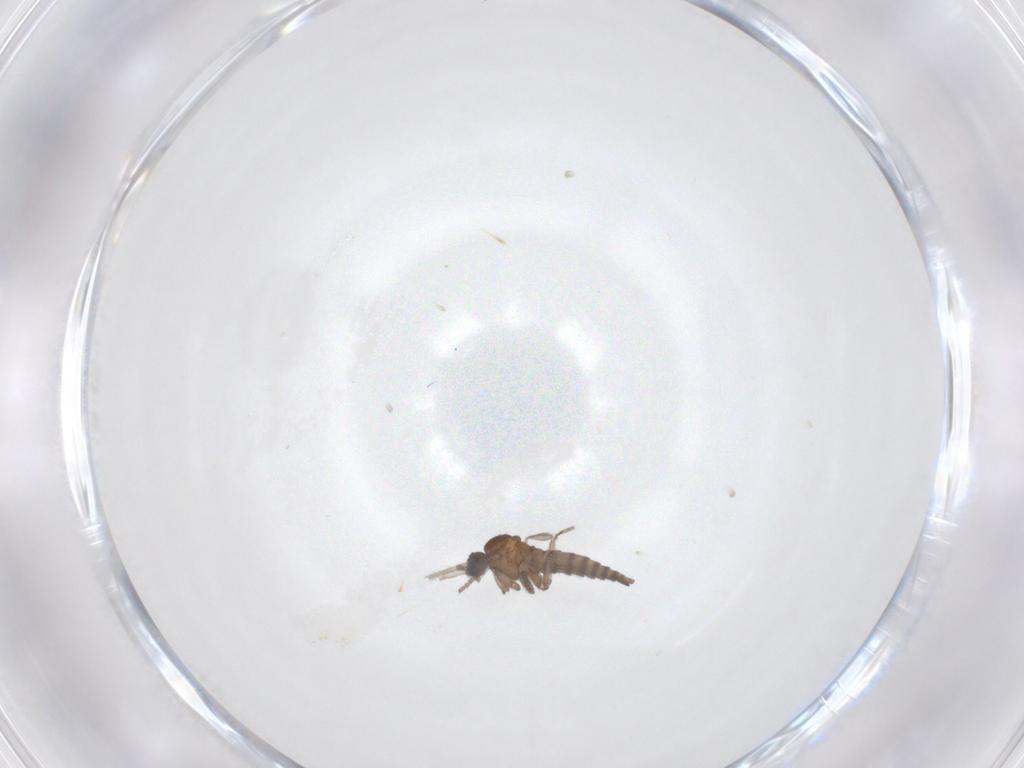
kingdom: Animalia
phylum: Arthropoda
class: Insecta
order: Diptera
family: Sciaridae
